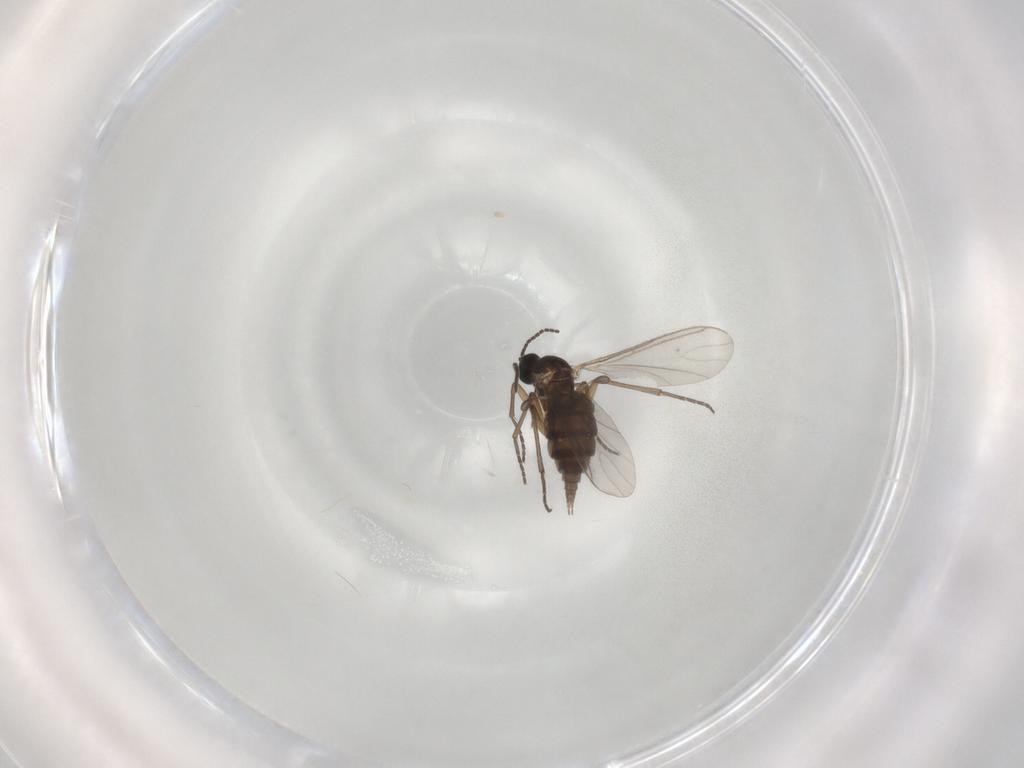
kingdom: Animalia
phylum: Arthropoda
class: Insecta
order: Diptera
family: Sciaridae
